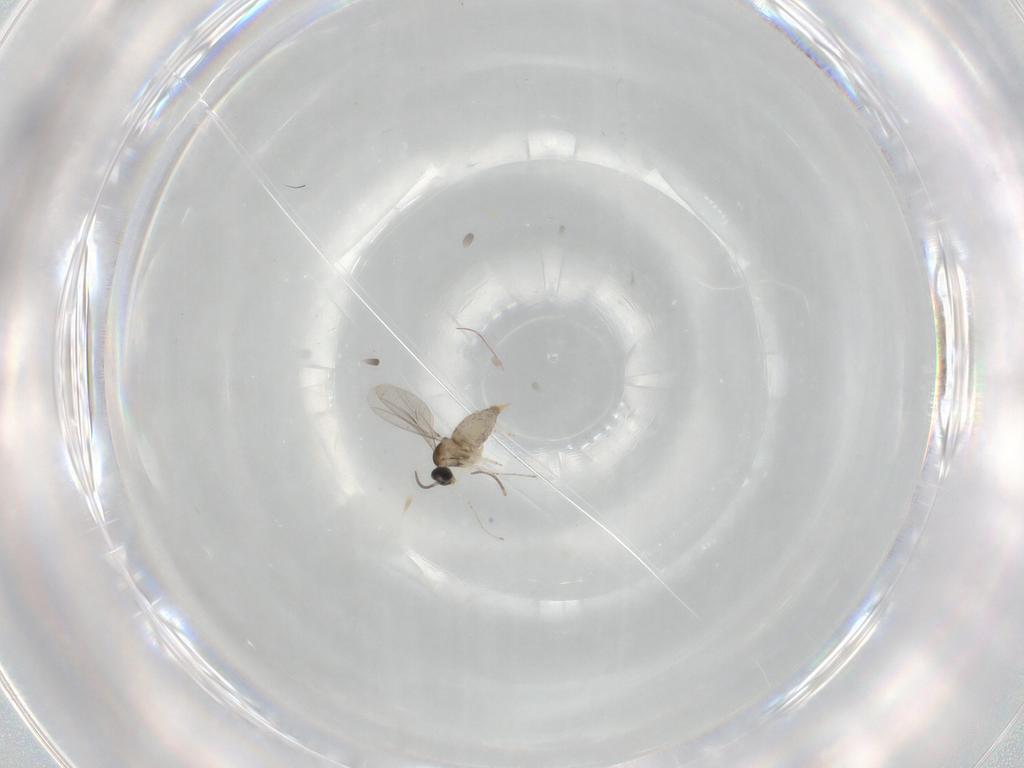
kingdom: Animalia
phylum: Arthropoda
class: Insecta
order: Diptera
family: Cecidomyiidae
